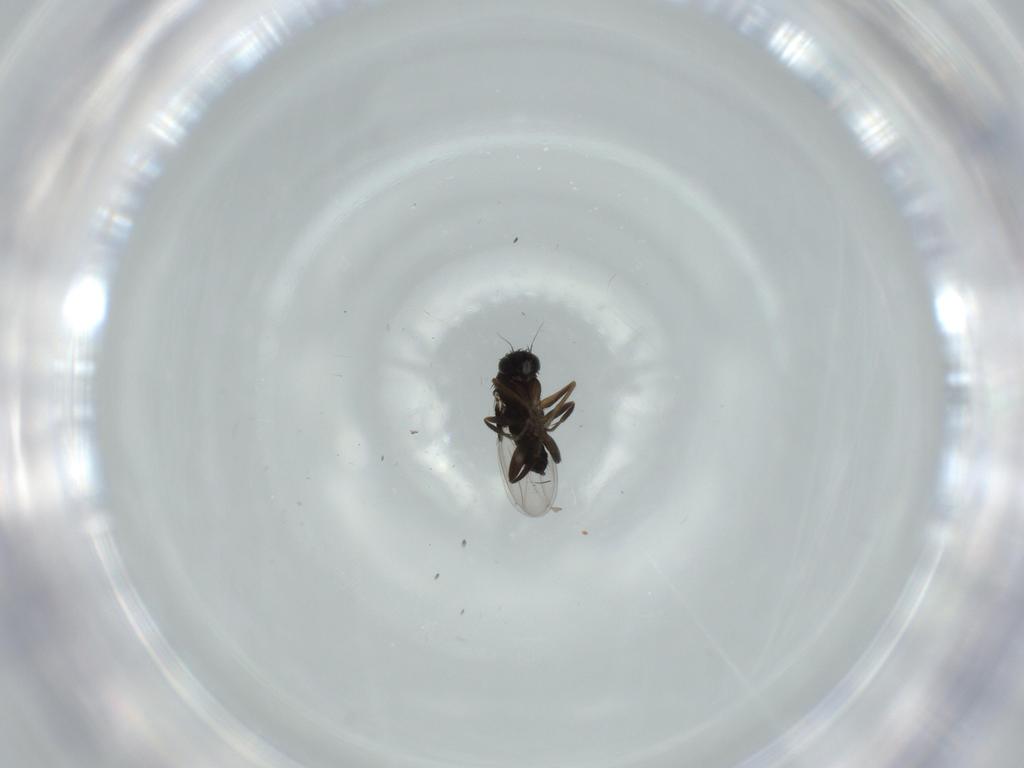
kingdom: Animalia
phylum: Arthropoda
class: Insecta
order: Diptera
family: Cecidomyiidae
